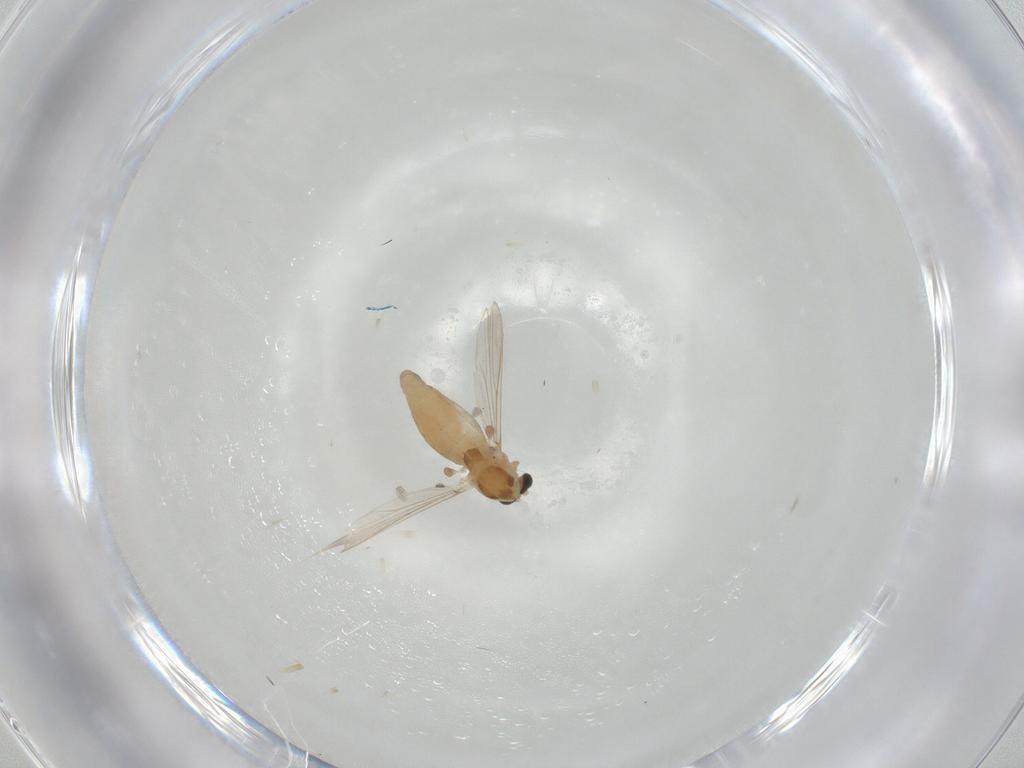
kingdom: Animalia
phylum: Arthropoda
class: Insecta
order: Diptera
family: Chironomidae
